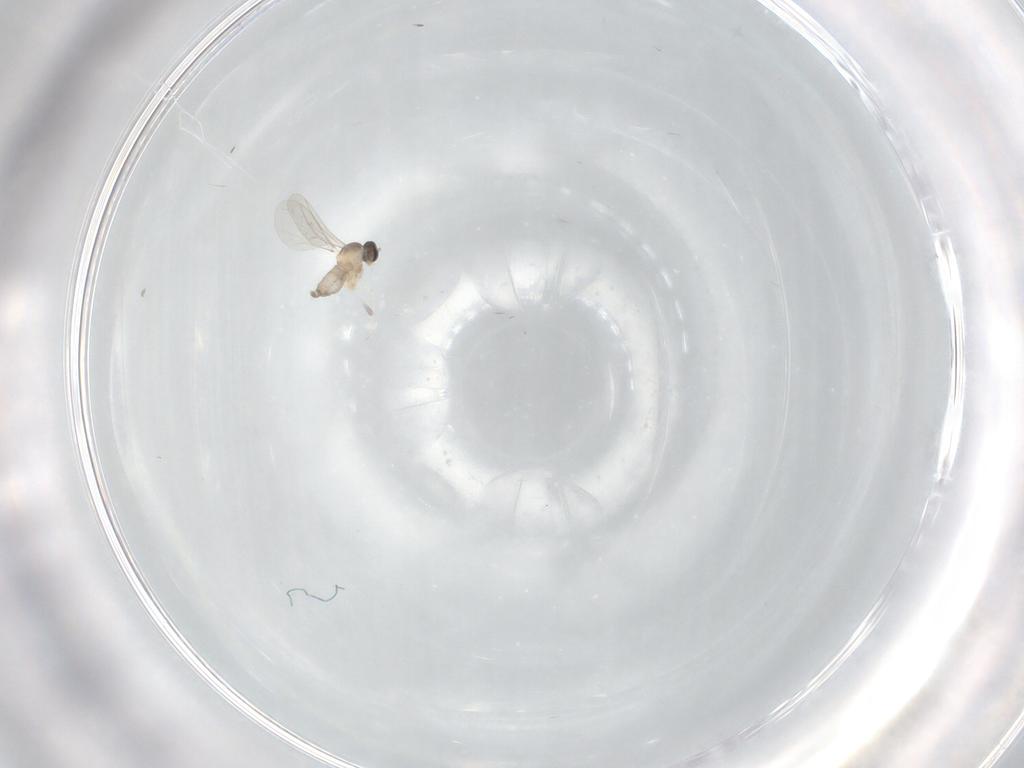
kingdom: Animalia
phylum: Arthropoda
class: Insecta
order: Diptera
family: Cecidomyiidae
